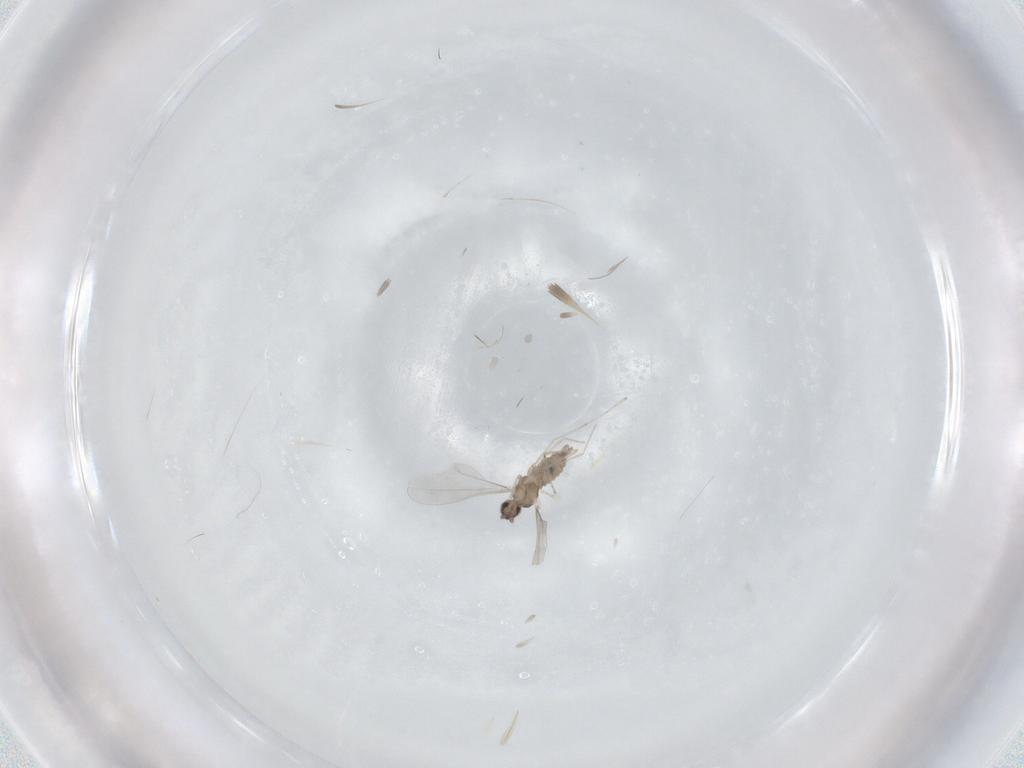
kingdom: Animalia
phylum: Arthropoda
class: Insecta
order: Diptera
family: Cecidomyiidae
